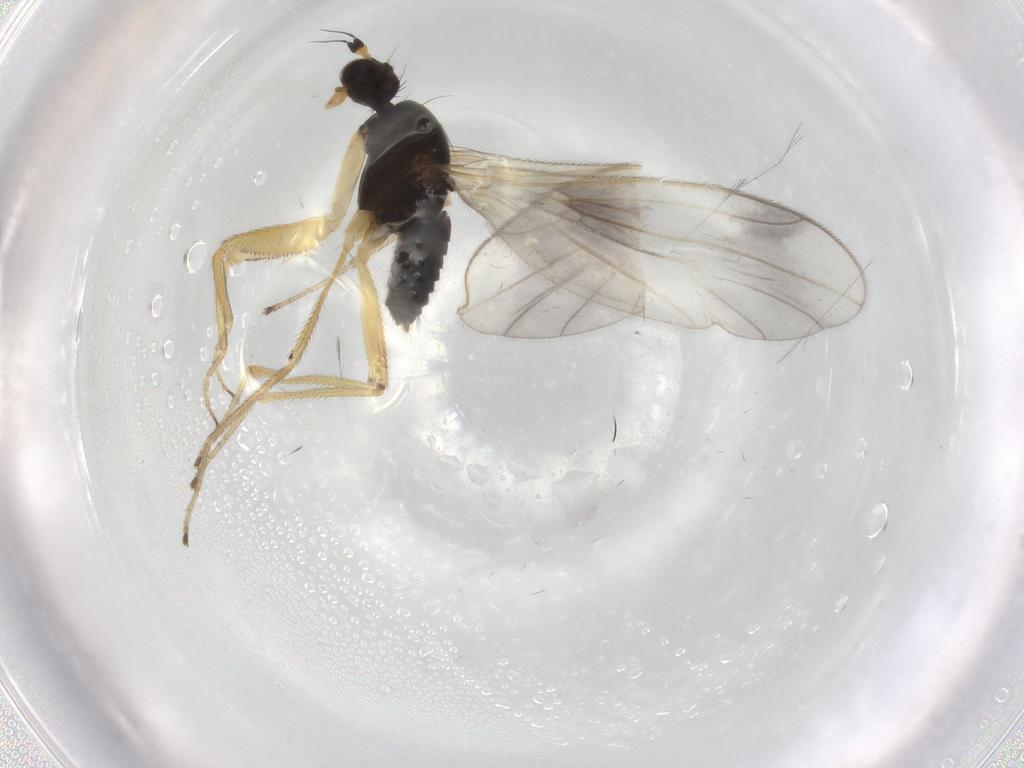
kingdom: Animalia
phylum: Arthropoda
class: Insecta
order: Diptera
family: Empididae
